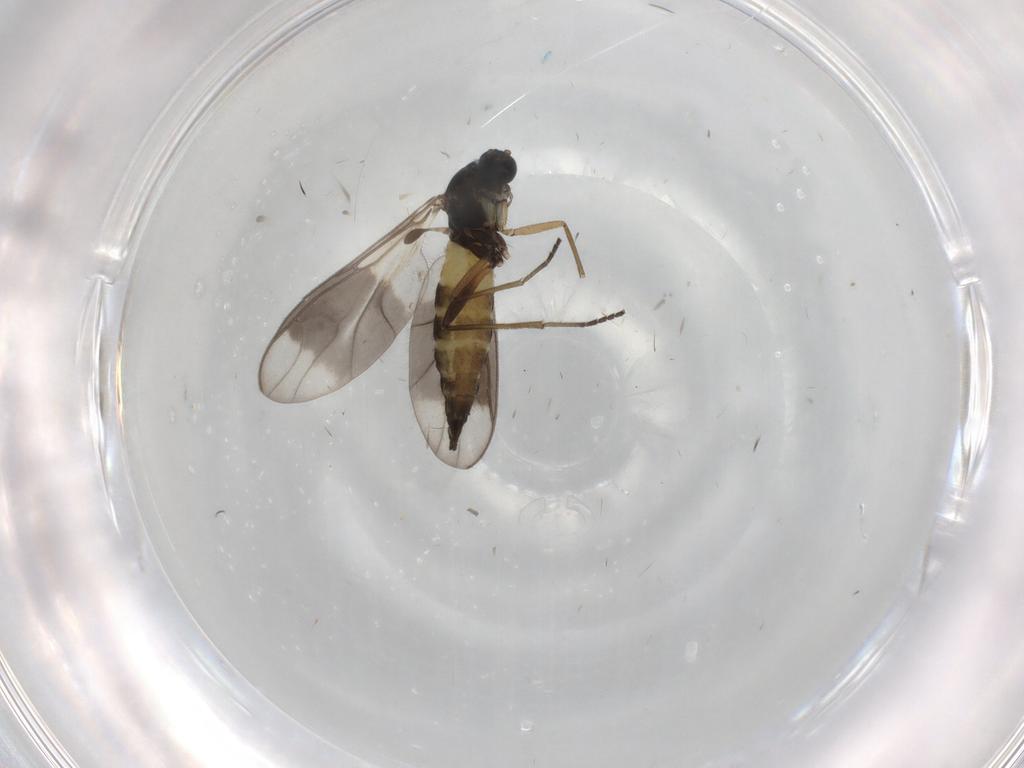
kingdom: Animalia
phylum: Arthropoda
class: Insecta
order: Diptera
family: Sciaridae
